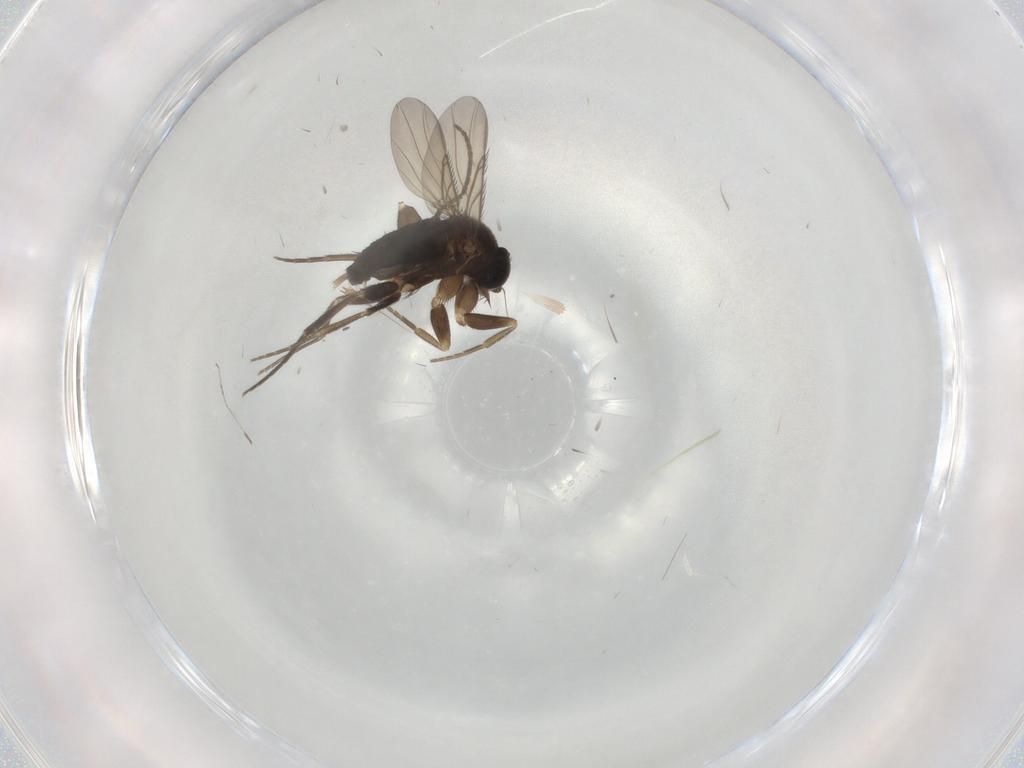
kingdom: Animalia
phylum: Arthropoda
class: Insecta
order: Diptera
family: Phoridae
